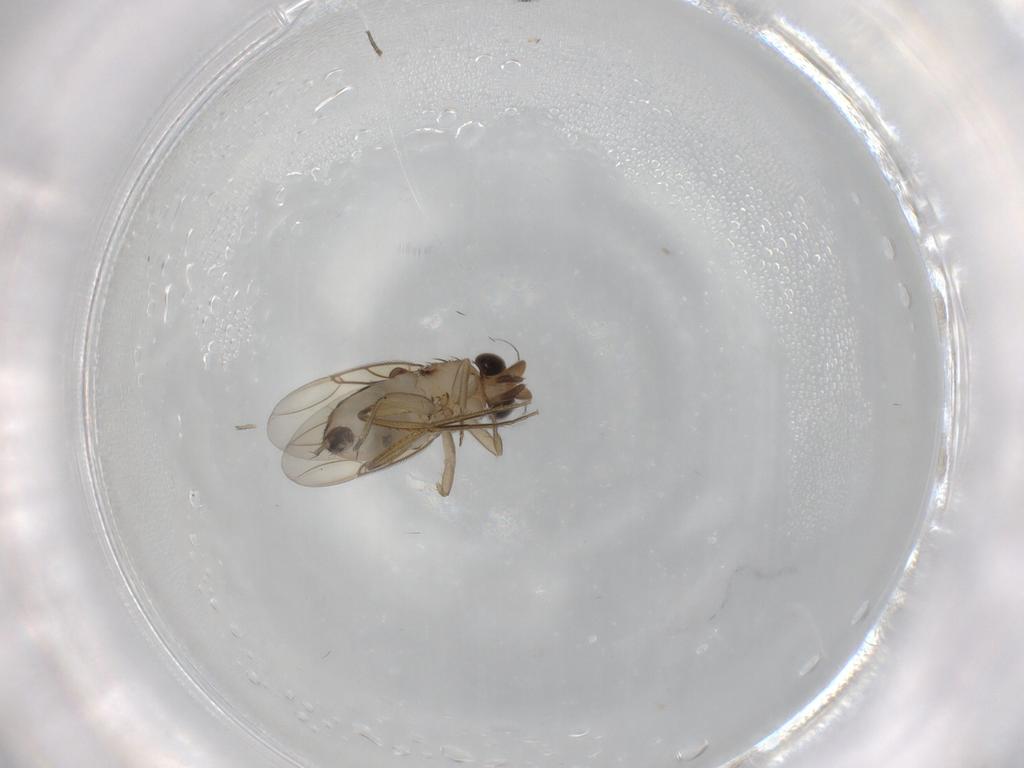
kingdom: Animalia
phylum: Arthropoda
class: Insecta
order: Diptera
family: Phoridae
